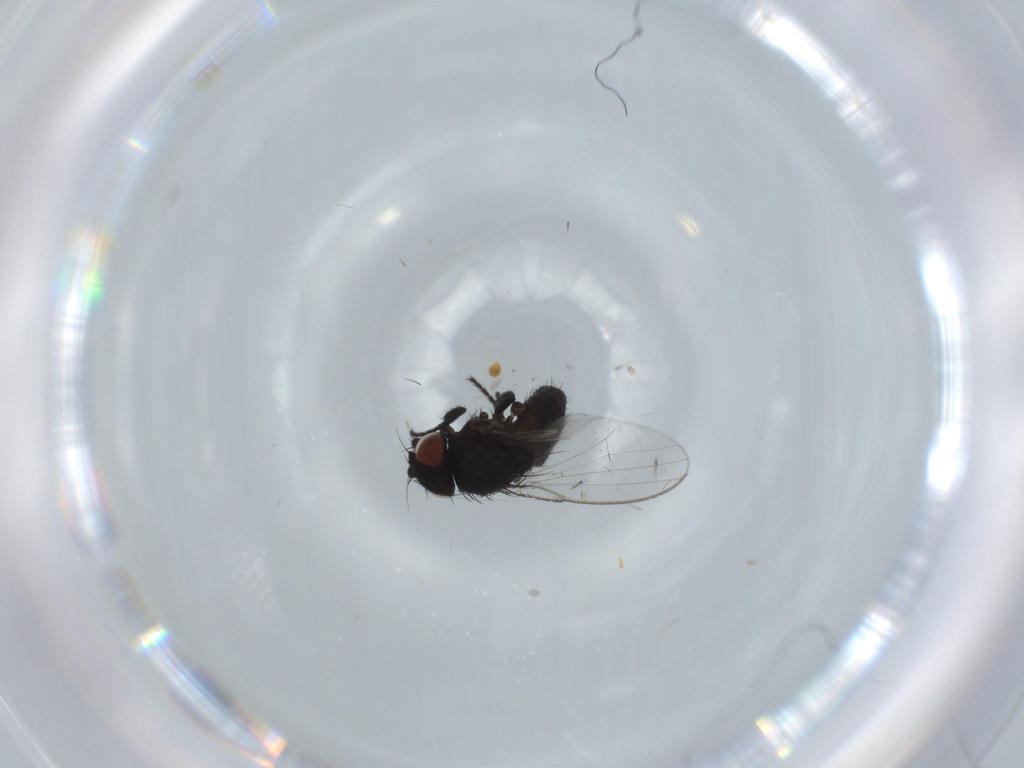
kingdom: Animalia
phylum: Arthropoda
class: Insecta
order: Diptera
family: Milichiidae
